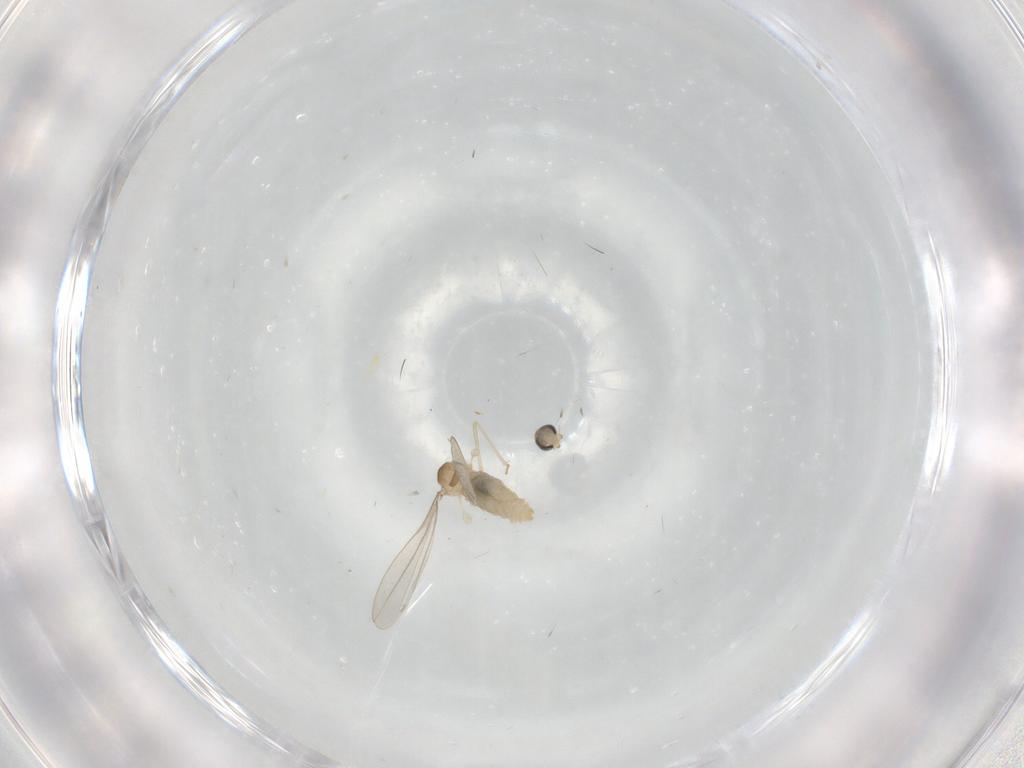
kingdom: Animalia
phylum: Arthropoda
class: Insecta
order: Diptera
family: Cecidomyiidae
